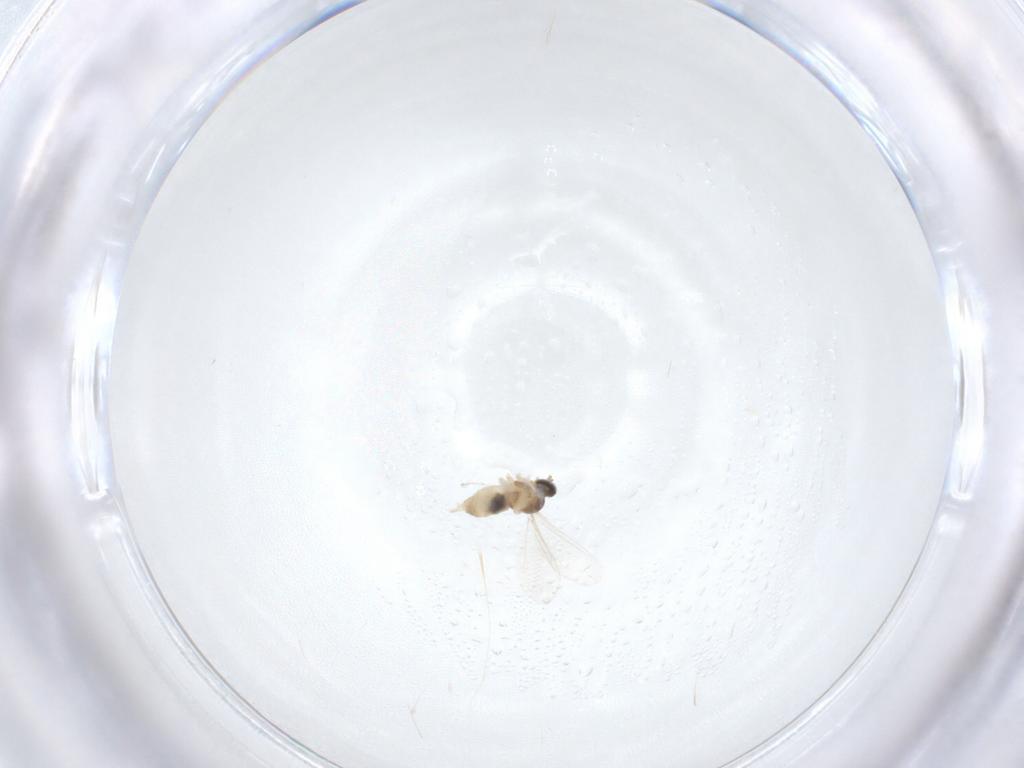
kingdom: Animalia
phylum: Arthropoda
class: Insecta
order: Diptera
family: Cecidomyiidae
